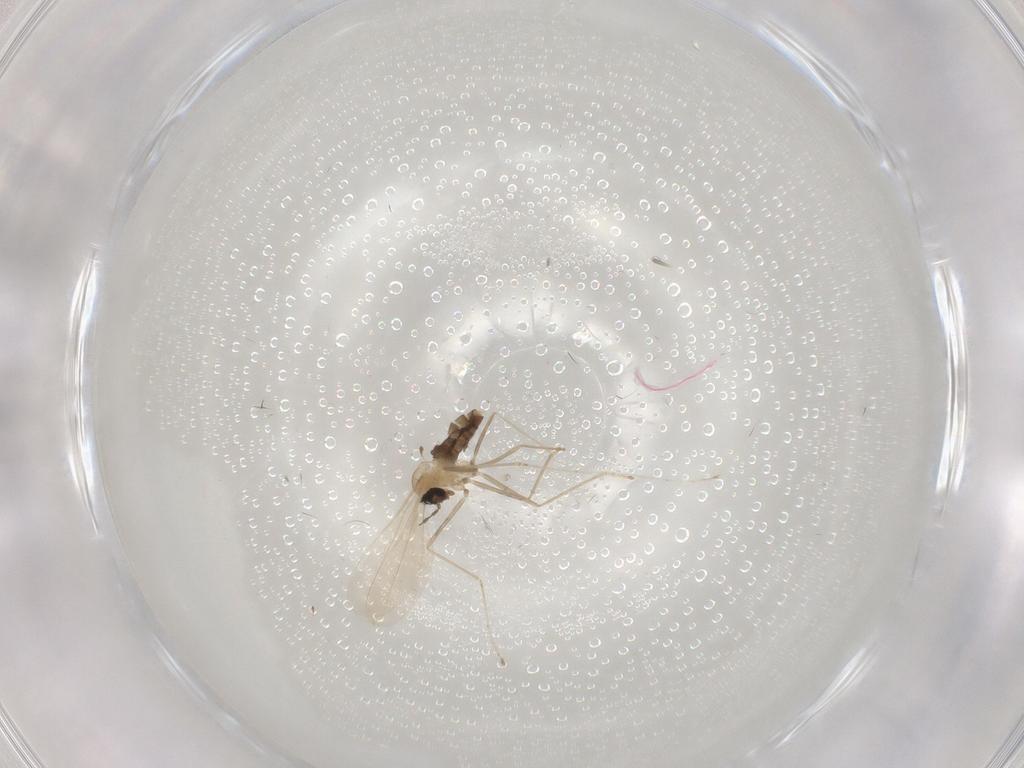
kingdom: Animalia
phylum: Arthropoda
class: Insecta
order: Diptera
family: Cecidomyiidae
